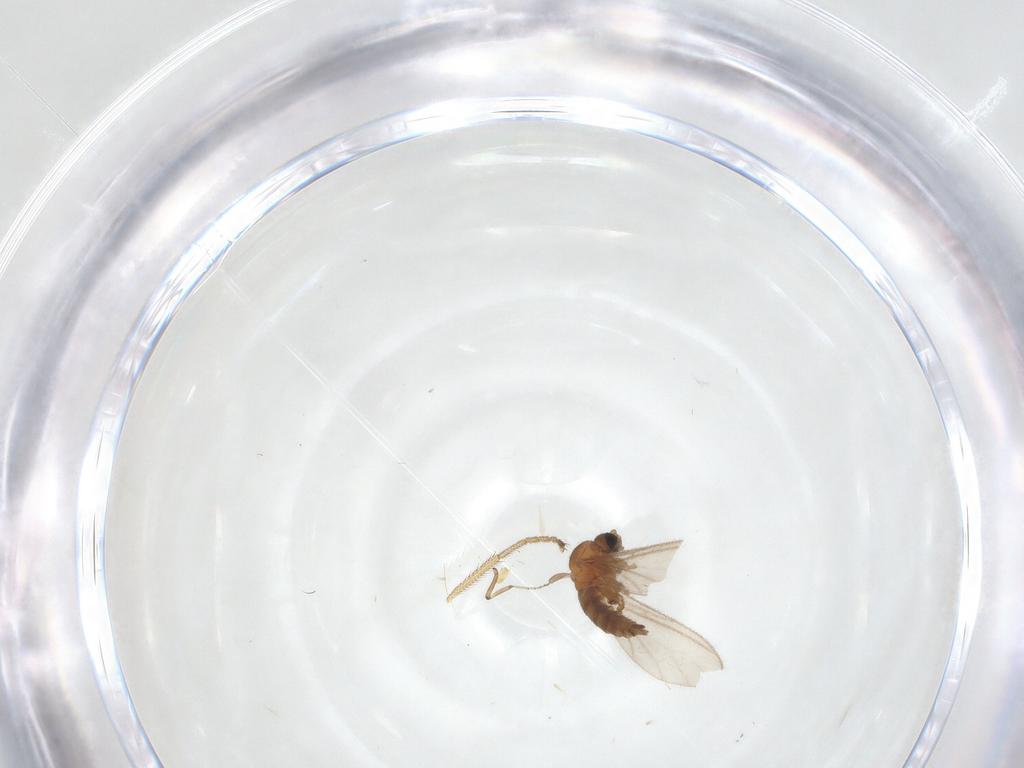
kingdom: Animalia
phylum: Arthropoda
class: Insecta
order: Diptera
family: Sciaridae
